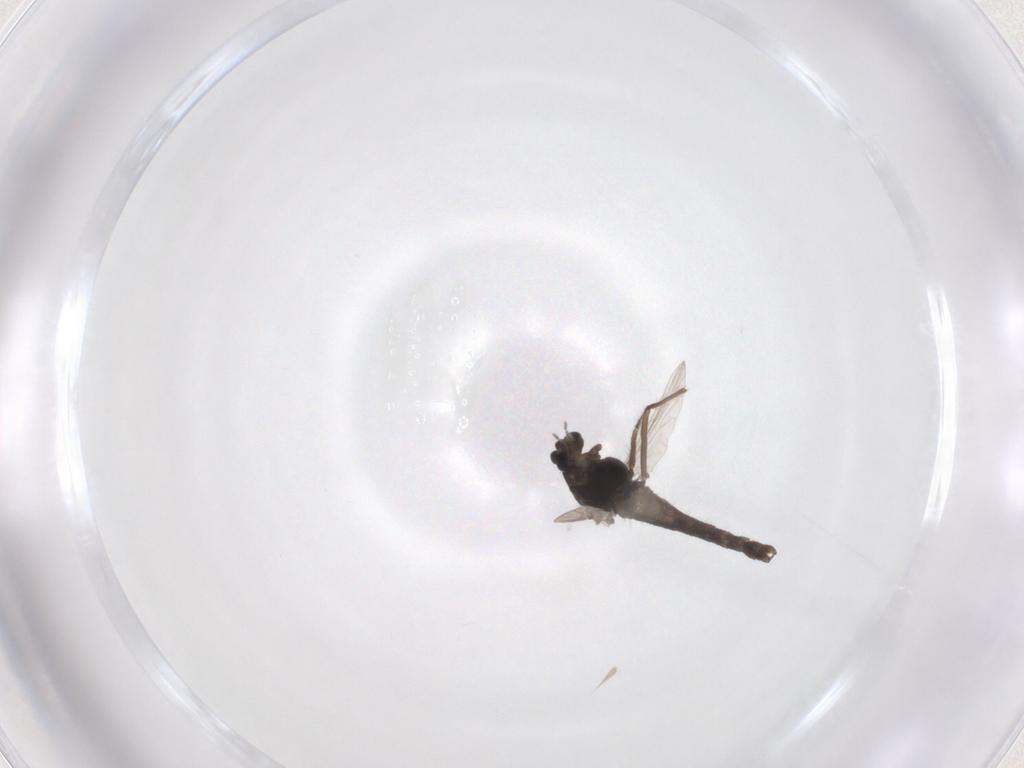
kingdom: Animalia
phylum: Arthropoda
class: Insecta
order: Diptera
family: Chironomidae
